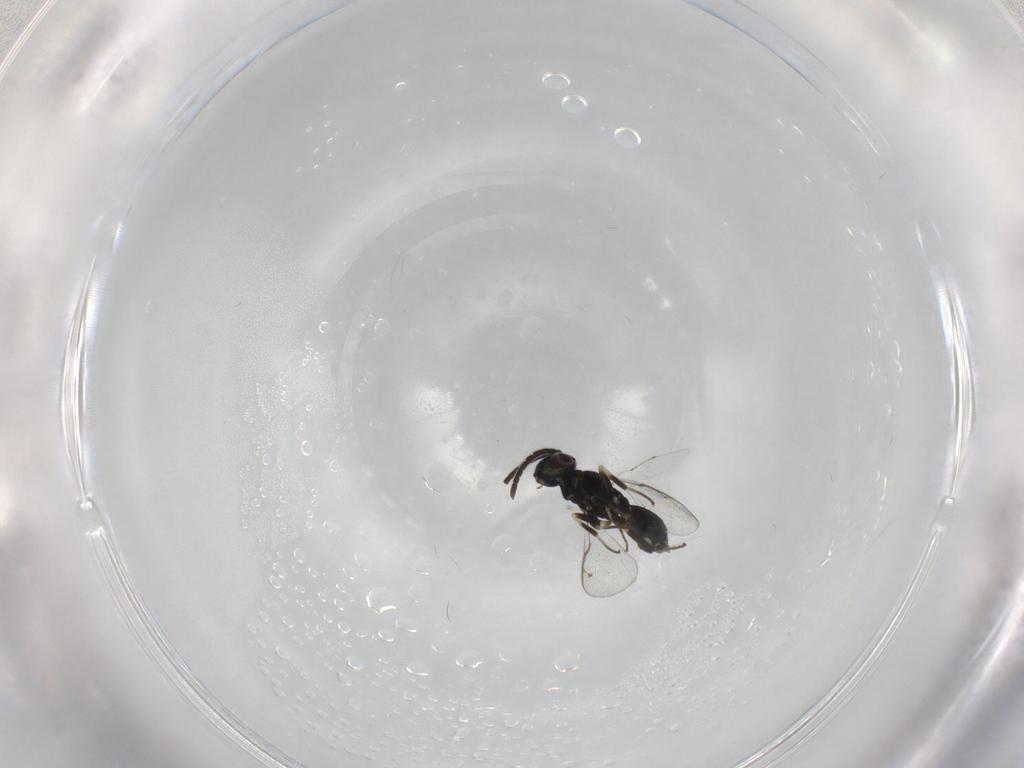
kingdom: Animalia
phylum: Arthropoda
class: Insecta
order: Hymenoptera
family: Eupelmidae
